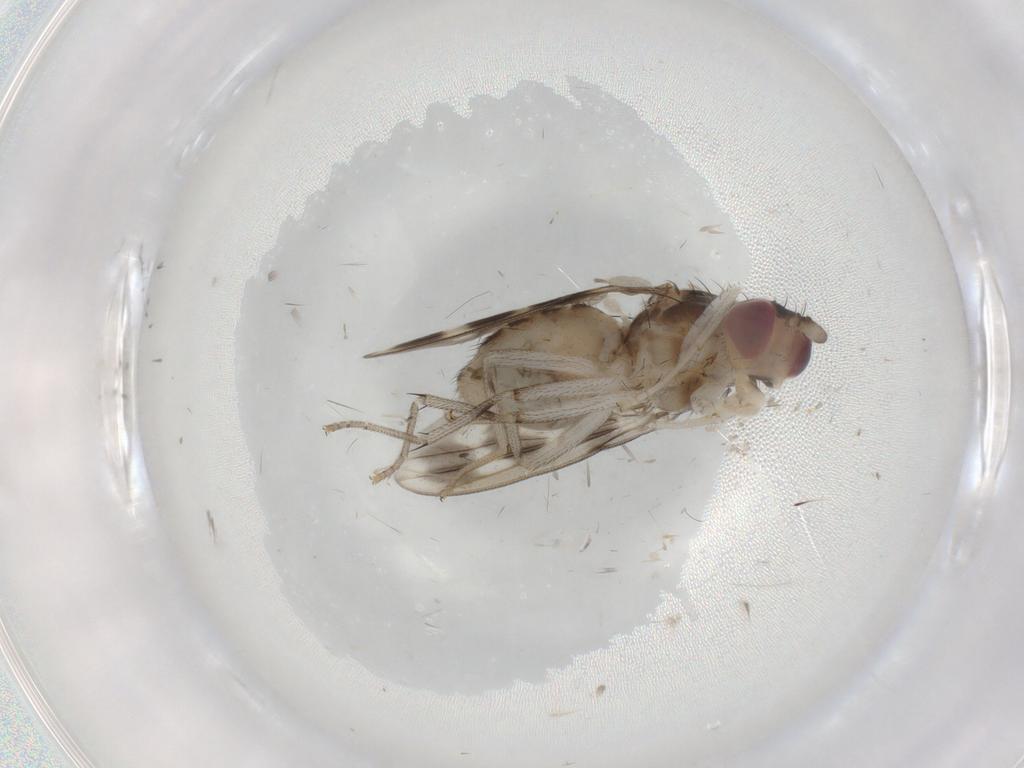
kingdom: Animalia
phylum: Arthropoda
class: Insecta
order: Diptera
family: Lauxaniidae
